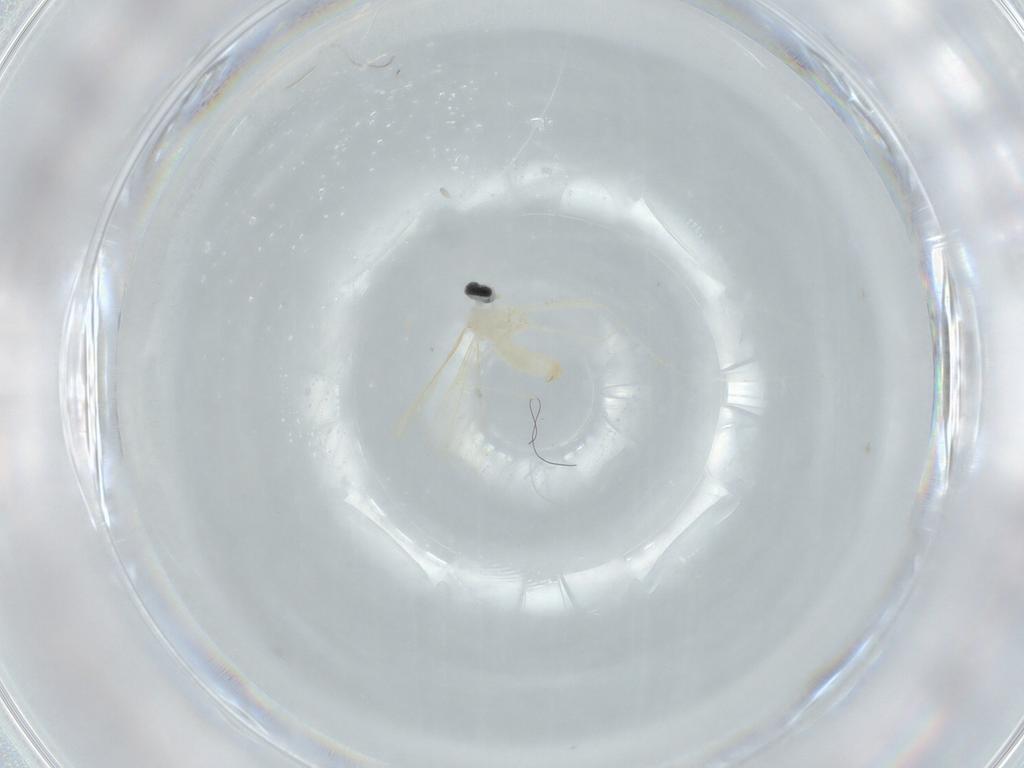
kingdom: Animalia
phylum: Arthropoda
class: Insecta
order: Diptera
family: Cecidomyiidae
